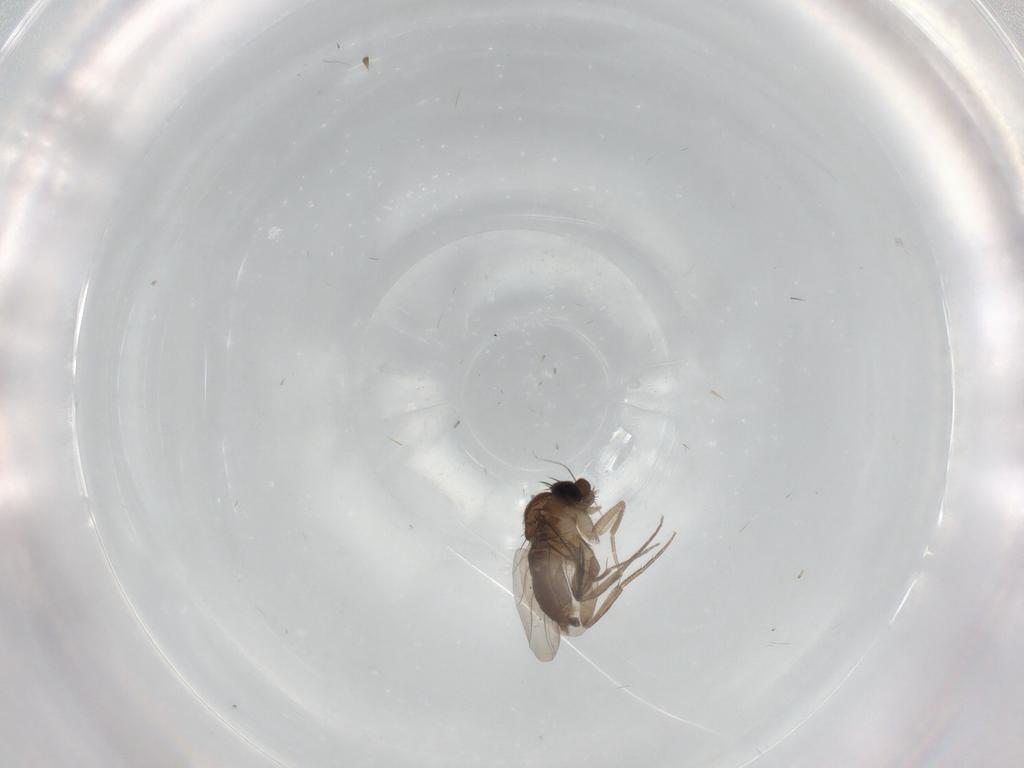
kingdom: Animalia
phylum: Arthropoda
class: Insecta
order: Diptera
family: Phoridae
